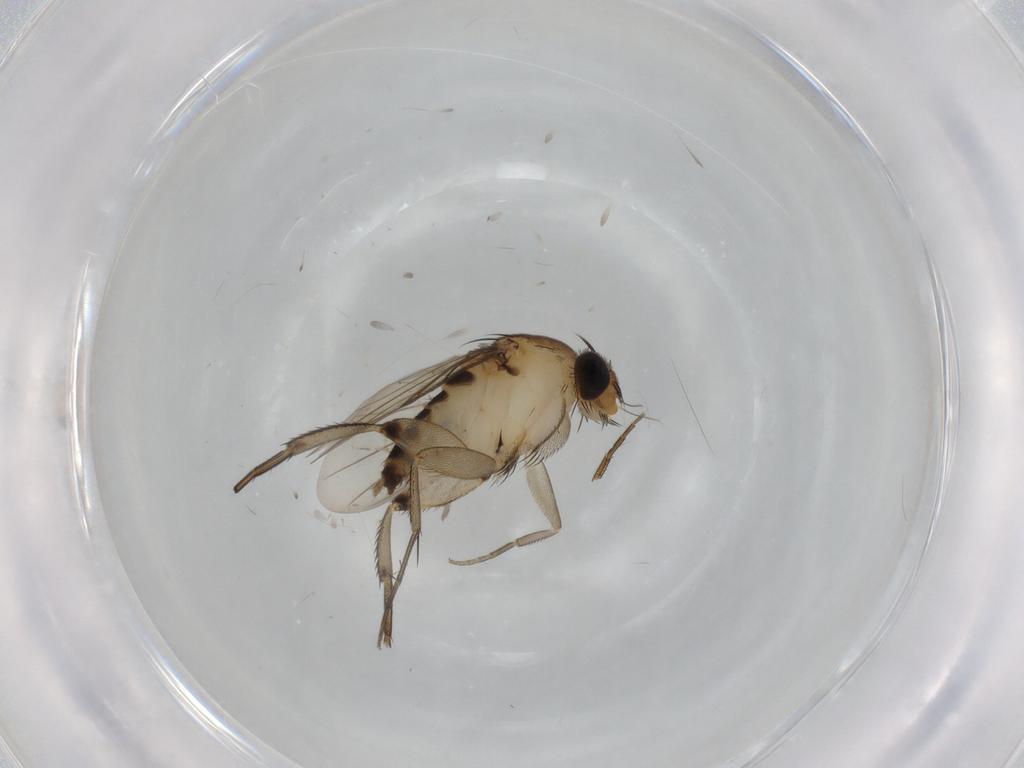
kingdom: Animalia
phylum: Arthropoda
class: Insecta
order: Diptera
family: Phoridae
